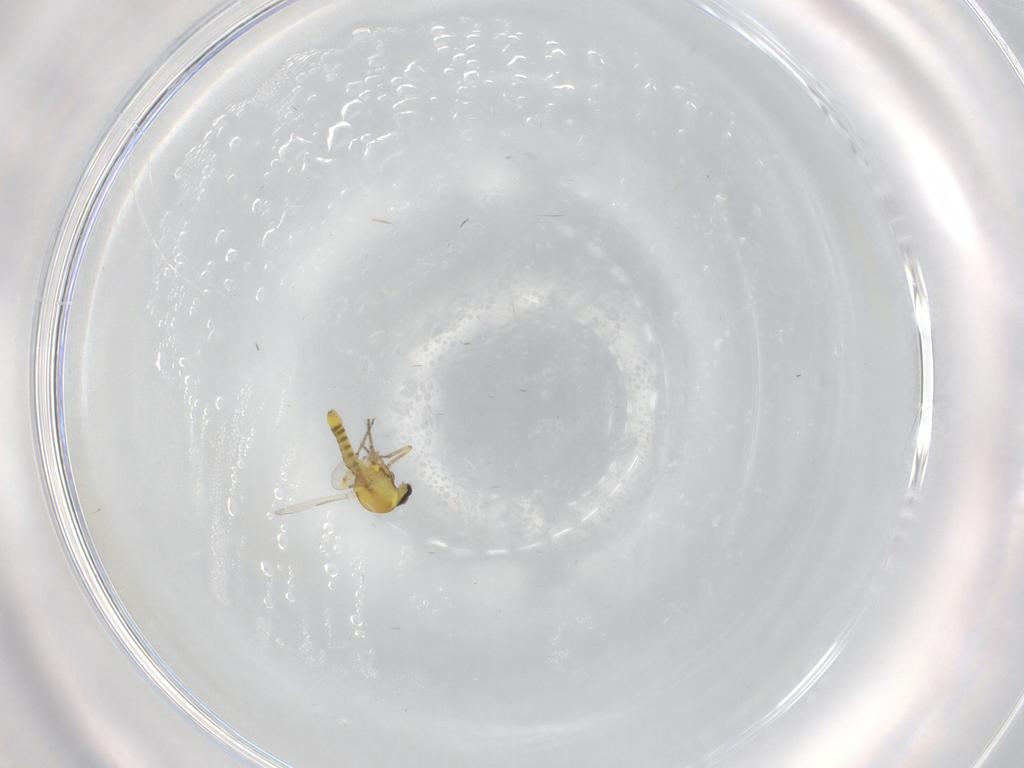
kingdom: Animalia
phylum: Arthropoda
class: Insecta
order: Diptera
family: Ceratopogonidae
